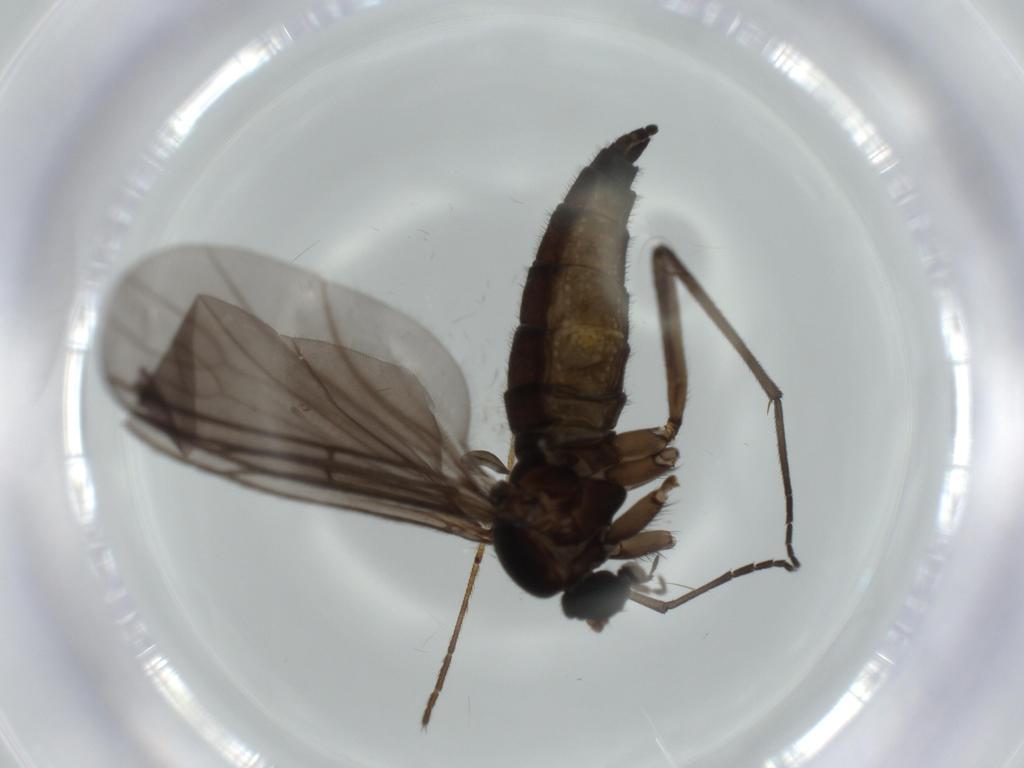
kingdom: Animalia
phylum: Arthropoda
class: Insecta
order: Diptera
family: Sciaridae
